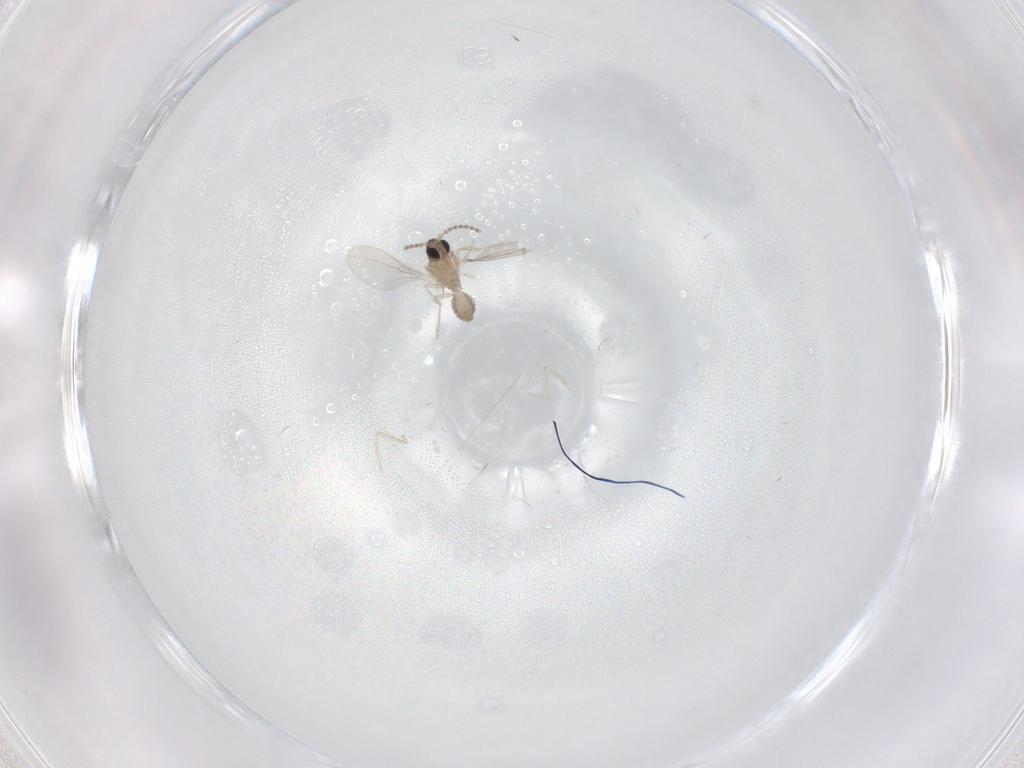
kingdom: Animalia
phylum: Arthropoda
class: Insecta
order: Diptera
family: Cecidomyiidae
